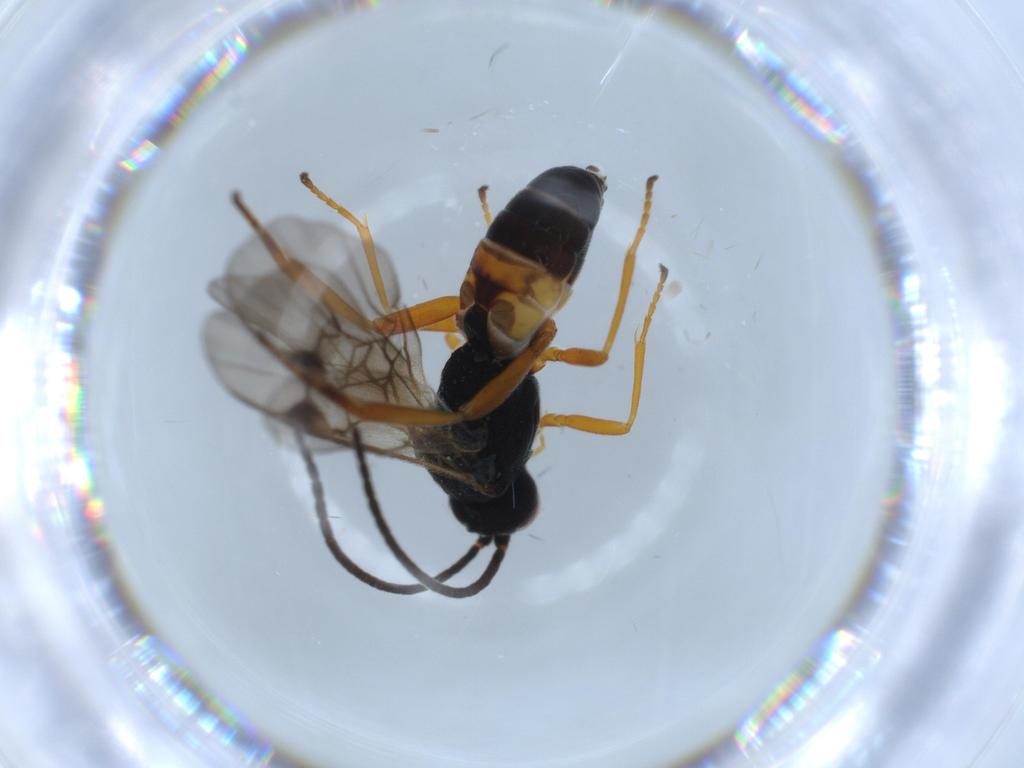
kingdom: Animalia
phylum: Arthropoda
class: Insecta
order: Hymenoptera
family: Braconidae
